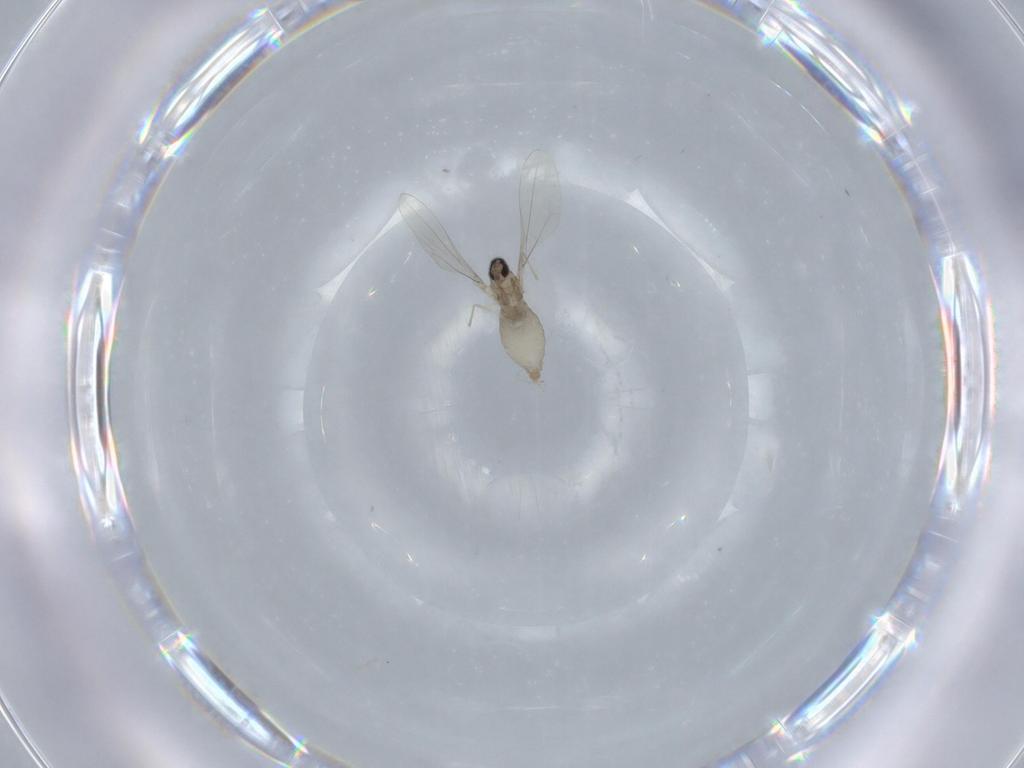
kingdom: Animalia
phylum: Arthropoda
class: Insecta
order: Diptera
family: Cecidomyiidae
